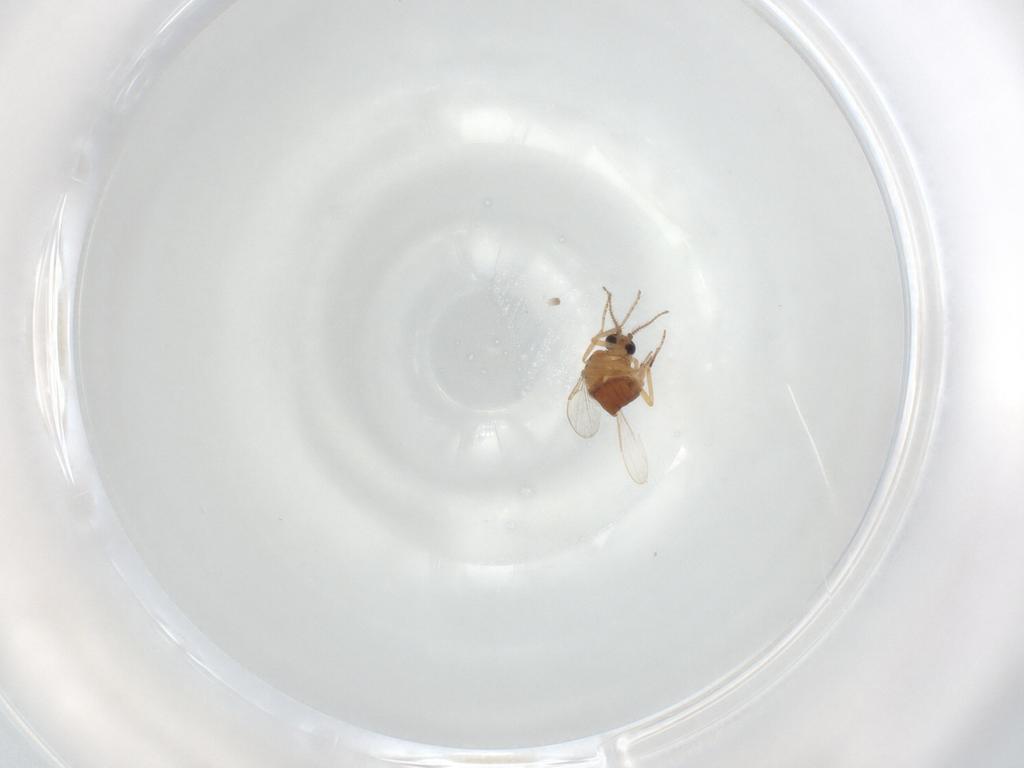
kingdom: Animalia
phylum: Arthropoda
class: Insecta
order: Diptera
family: Ceratopogonidae
